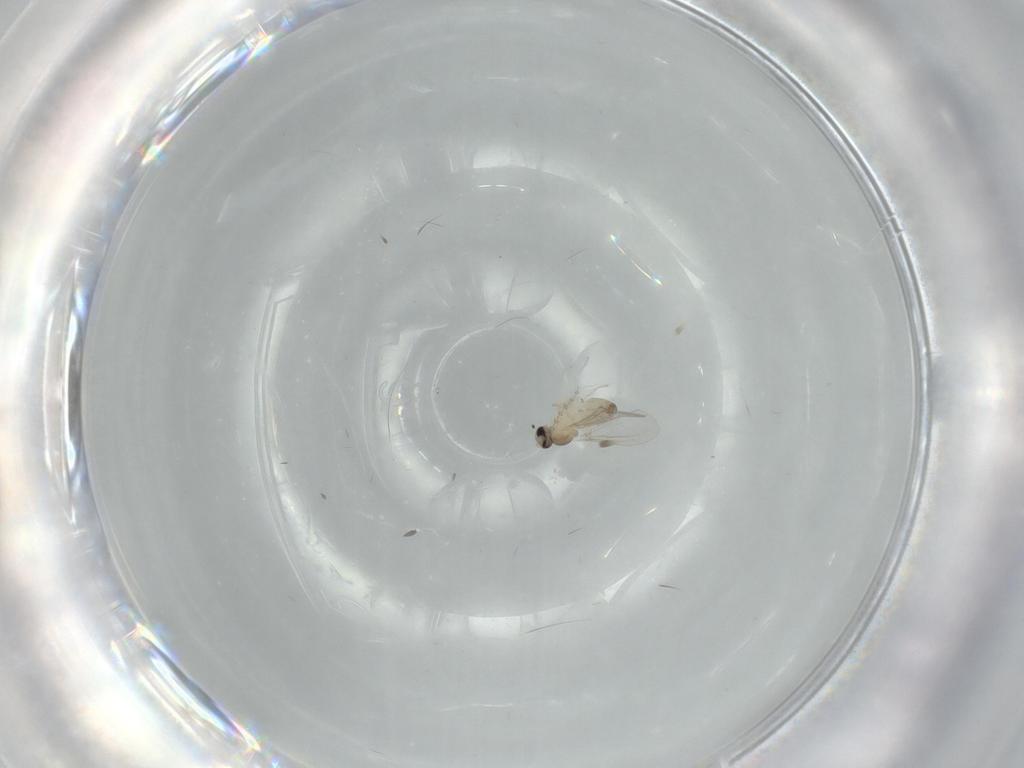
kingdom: Animalia
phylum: Arthropoda
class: Insecta
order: Diptera
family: Cecidomyiidae
